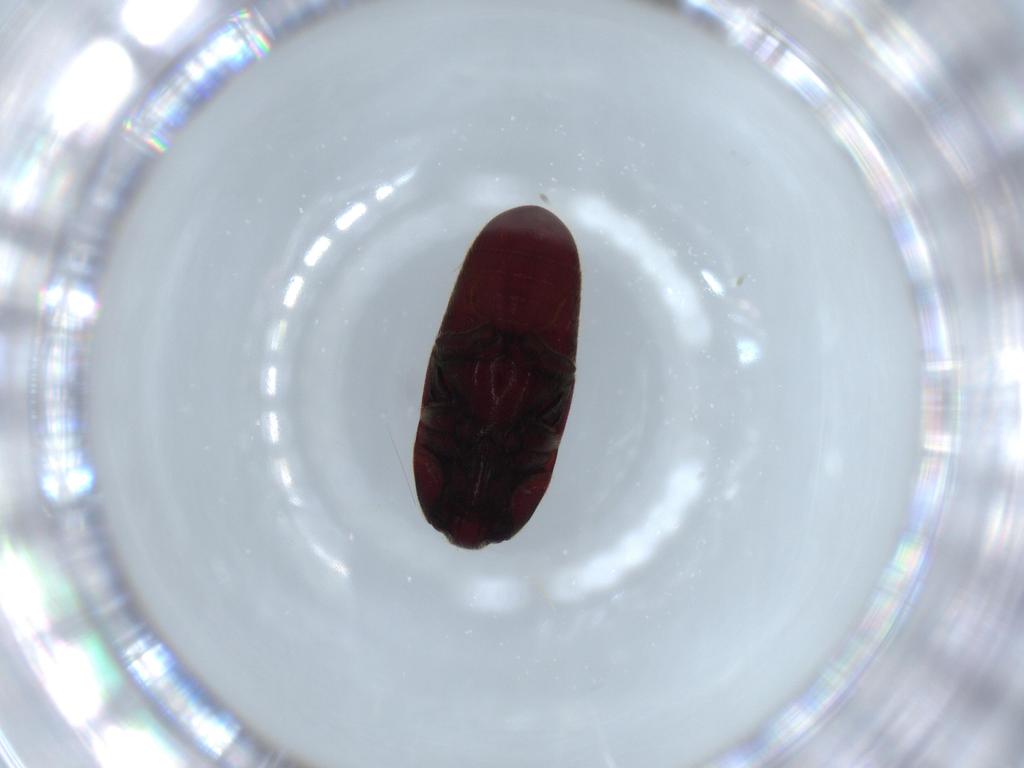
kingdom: Animalia
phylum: Arthropoda
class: Insecta
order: Coleoptera
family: Throscidae
